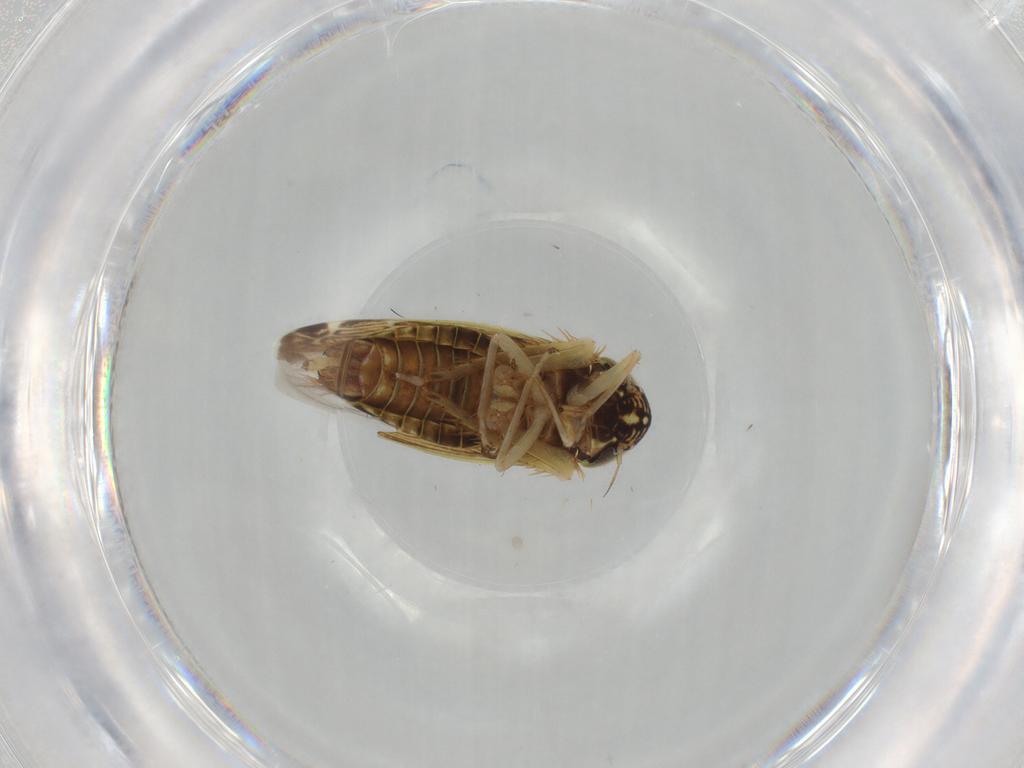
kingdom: Animalia
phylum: Arthropoda
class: Insecta
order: Hemiptera
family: Cicadellidae
